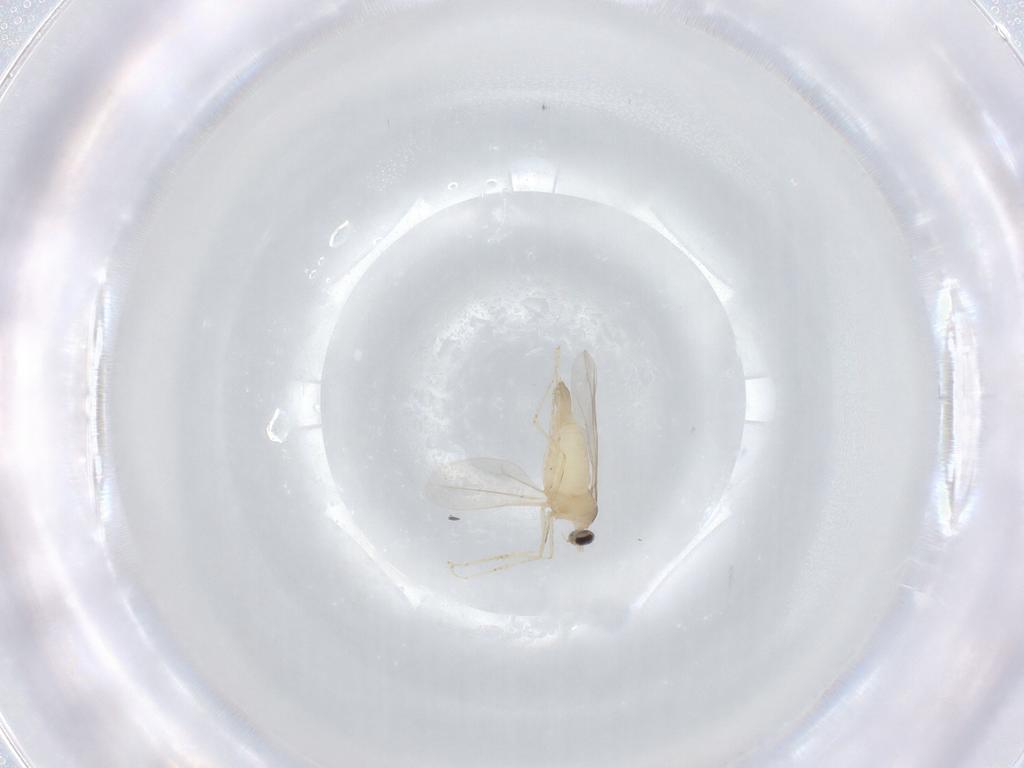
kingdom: Animalia
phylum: Arthropoda
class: Insecta
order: Diptera
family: Cecidomyiidae
